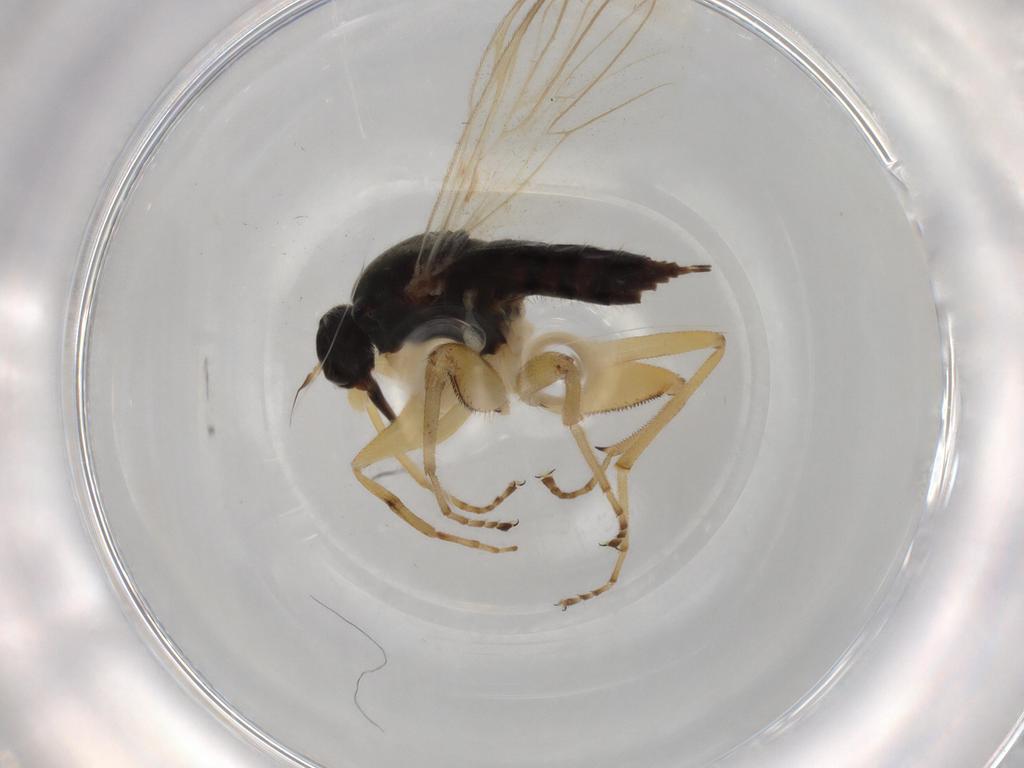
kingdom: Animalia
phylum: Arthropoda
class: Insecta
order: Diptera
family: Hybotidae
